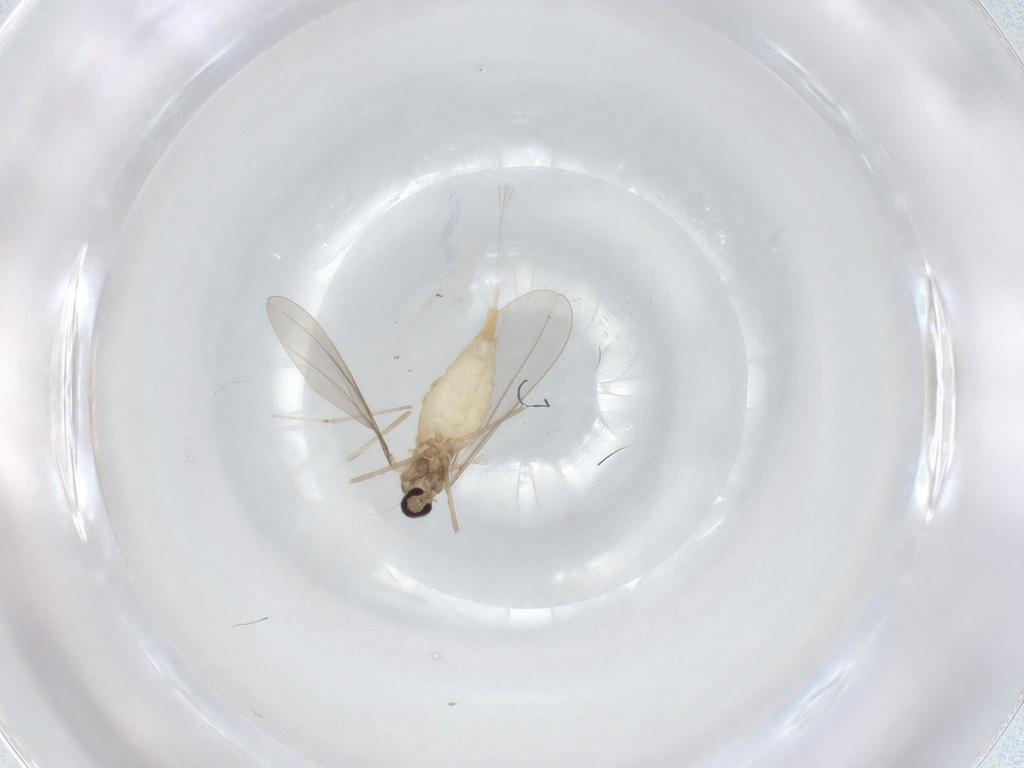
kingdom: Animalia
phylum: Arthropoda
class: Insecta
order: Diptera
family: Cecidomyiidae
